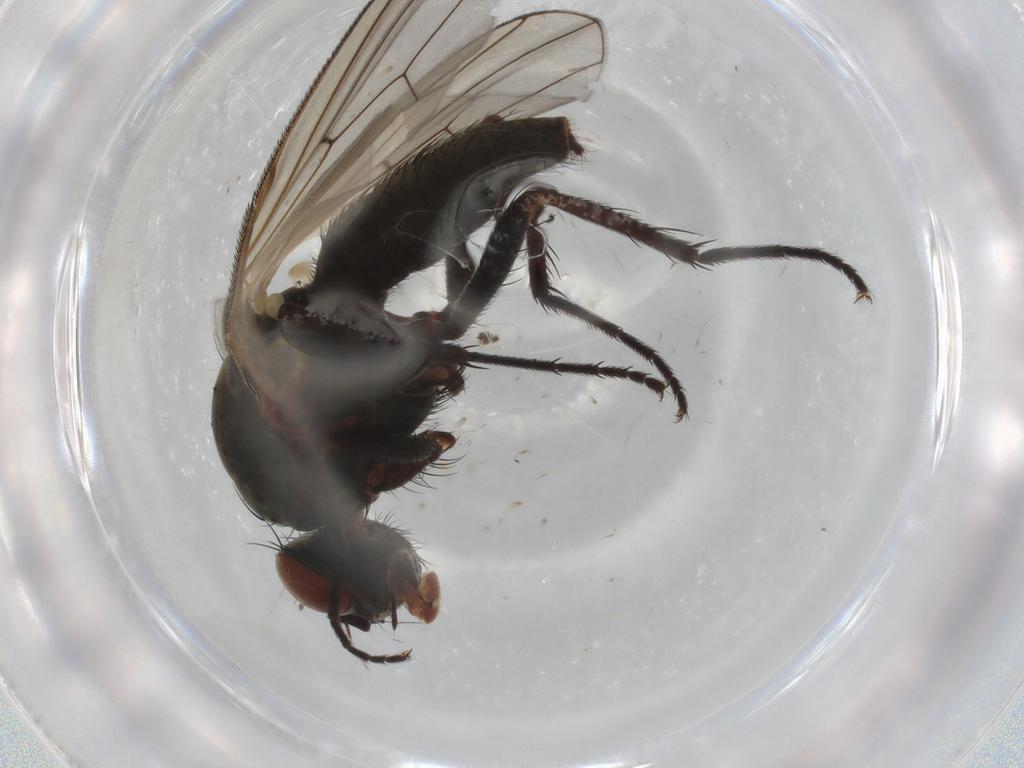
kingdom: Animalia
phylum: Arthropoda
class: Insecta
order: Diptera
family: Anthomyiidae
